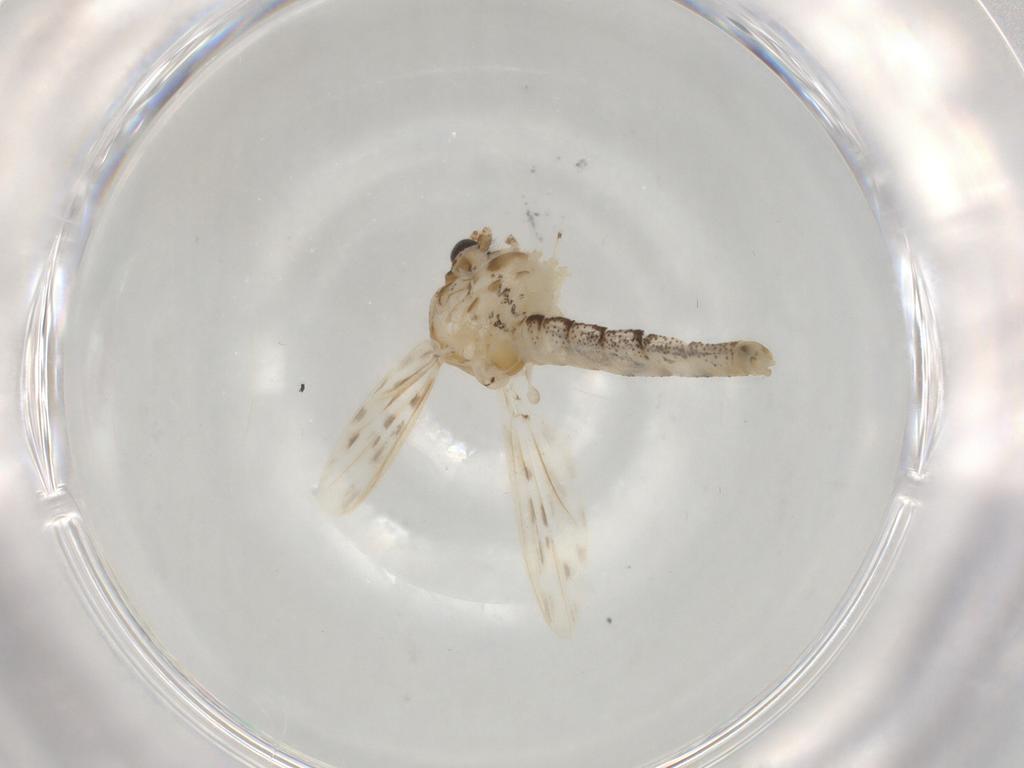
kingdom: Animalia
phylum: Arthropoda
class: Insecta
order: Diptera
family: Chaoboridae
